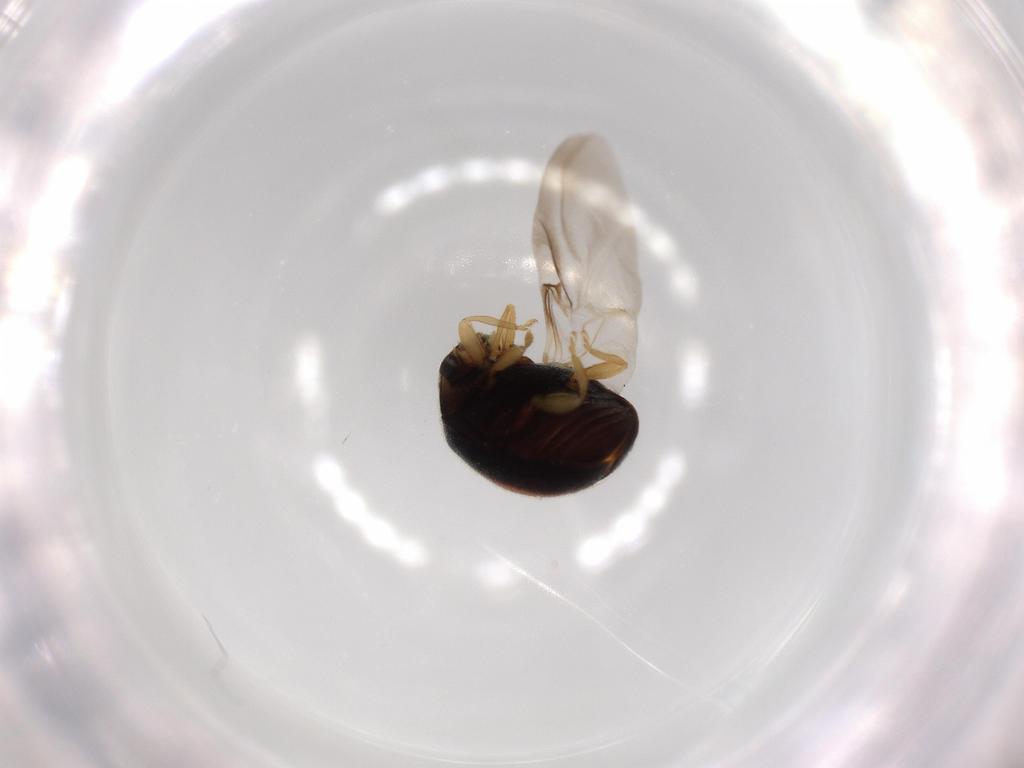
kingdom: Animalia
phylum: Arthropoda
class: Insecta
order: Coleoptera
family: Coccinellidae
